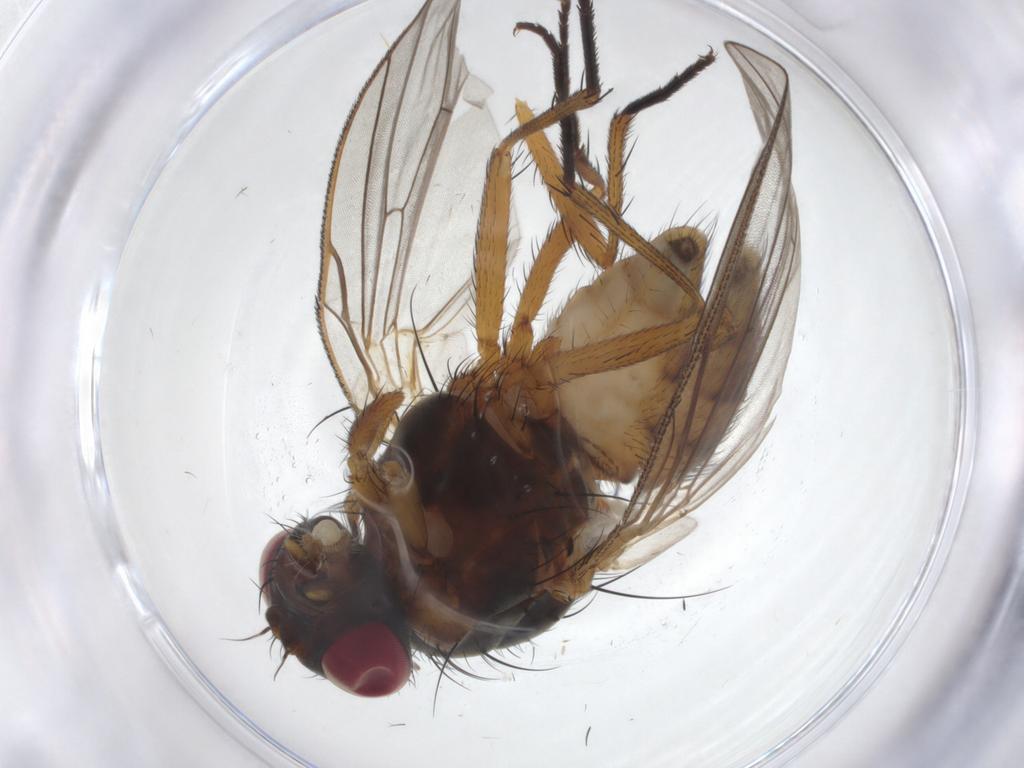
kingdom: Animalia
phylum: Arthropoda
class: Insecta
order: Diptera
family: Anthomyiidae
